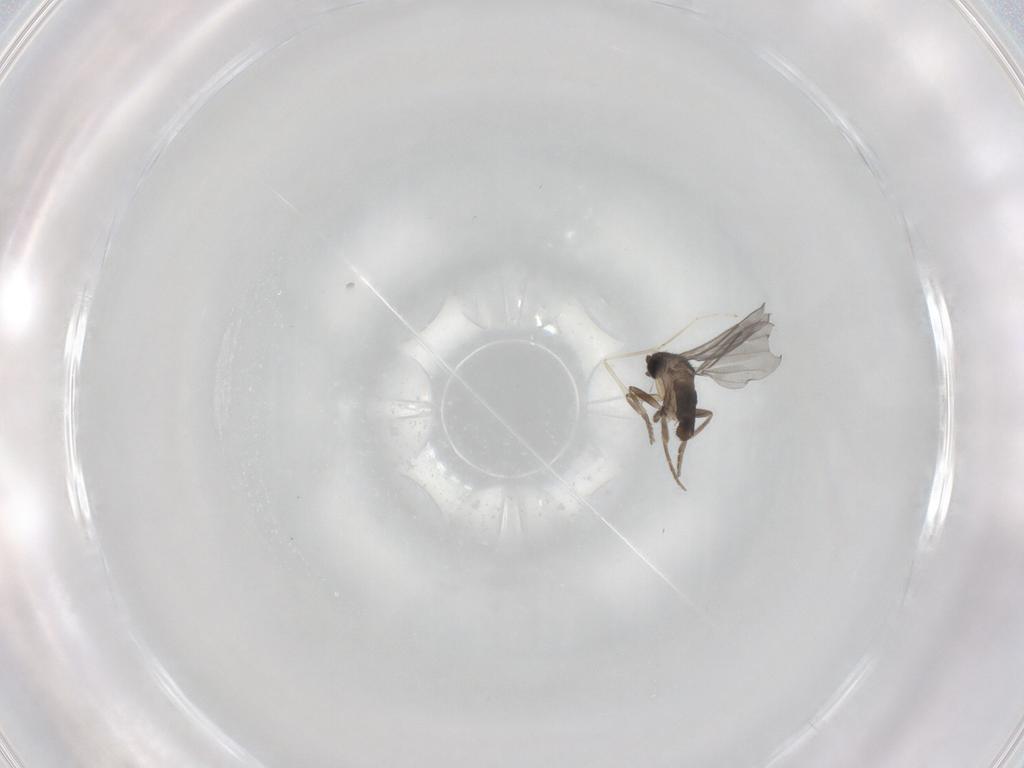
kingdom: Animalia
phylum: Arthropoda
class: Insecta
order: Diptera
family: Cecidomyiidae
